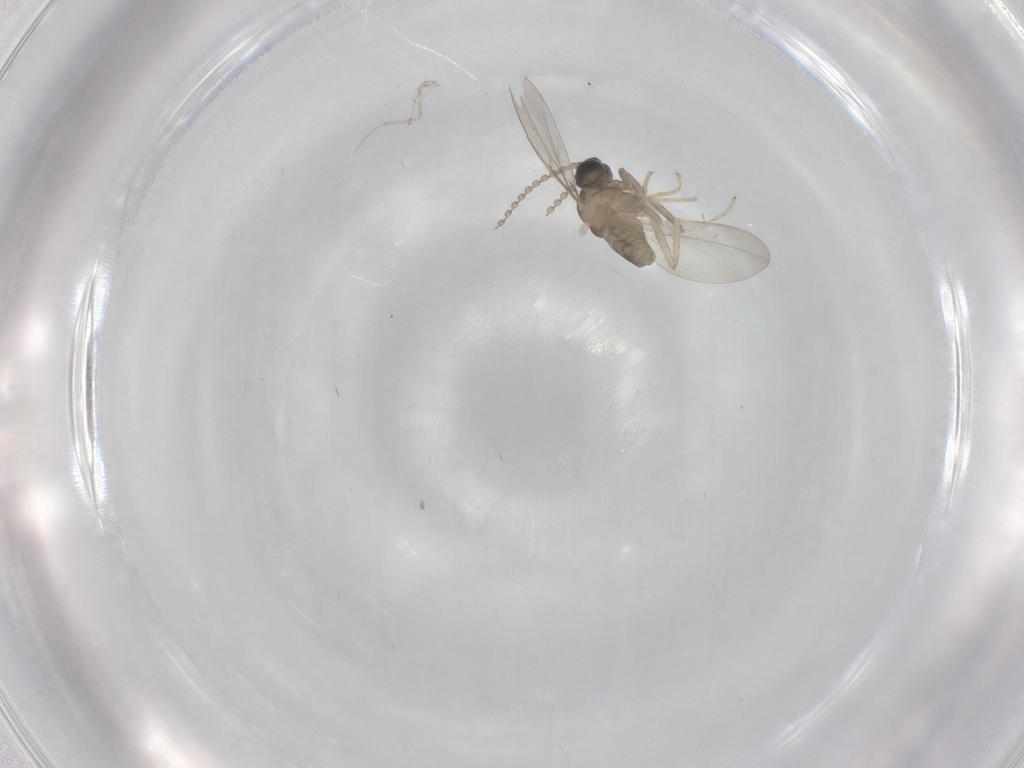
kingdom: Animalia
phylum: Arthropoda
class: Insecta
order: Diptera
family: Cecidomyiidae
